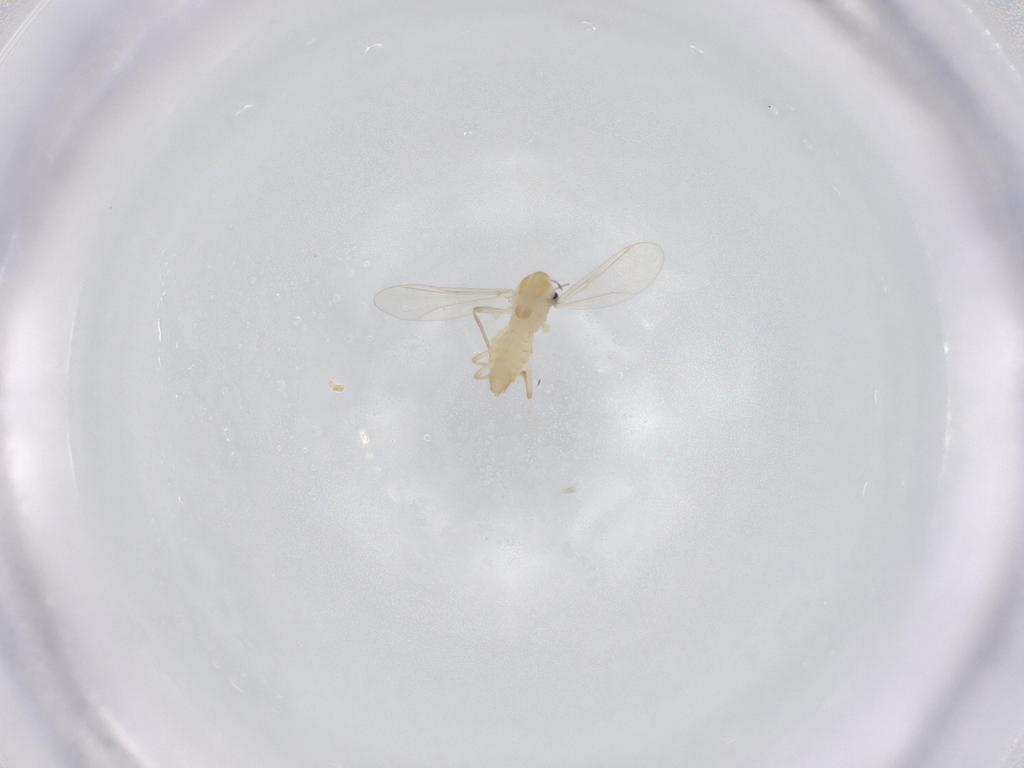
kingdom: Animalia
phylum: Arthropoda
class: Insecta
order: Diptera
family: Chironomidae
